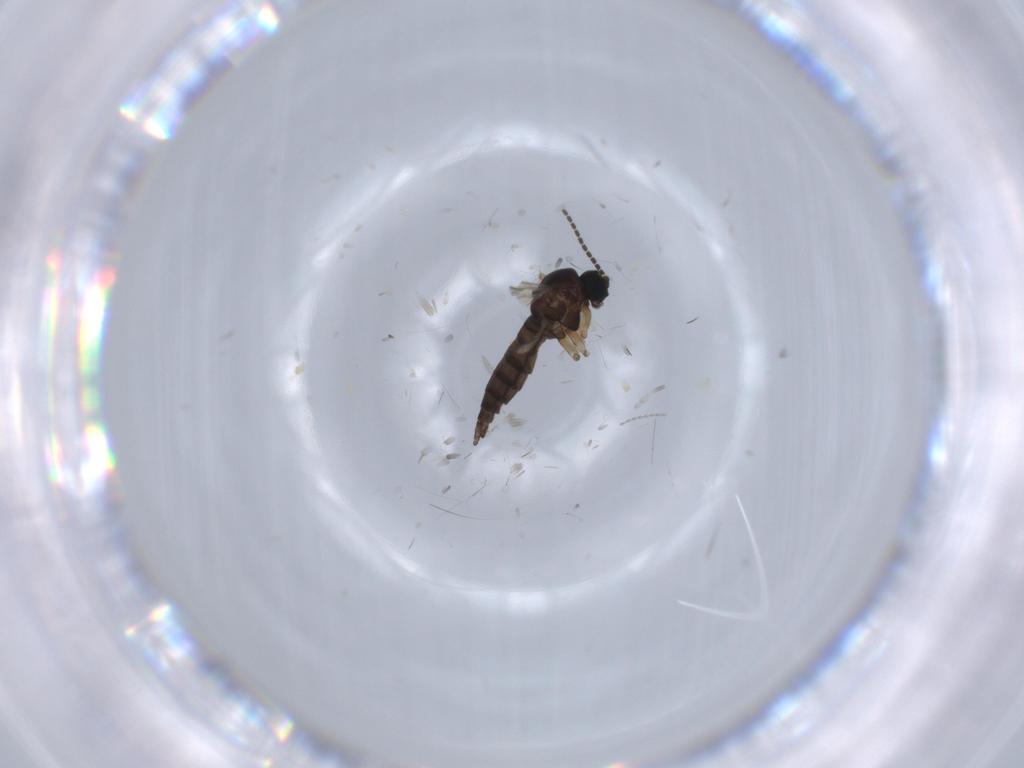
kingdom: Animalia
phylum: Arthropoda
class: Insecta
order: Diptera
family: Sciaridae
